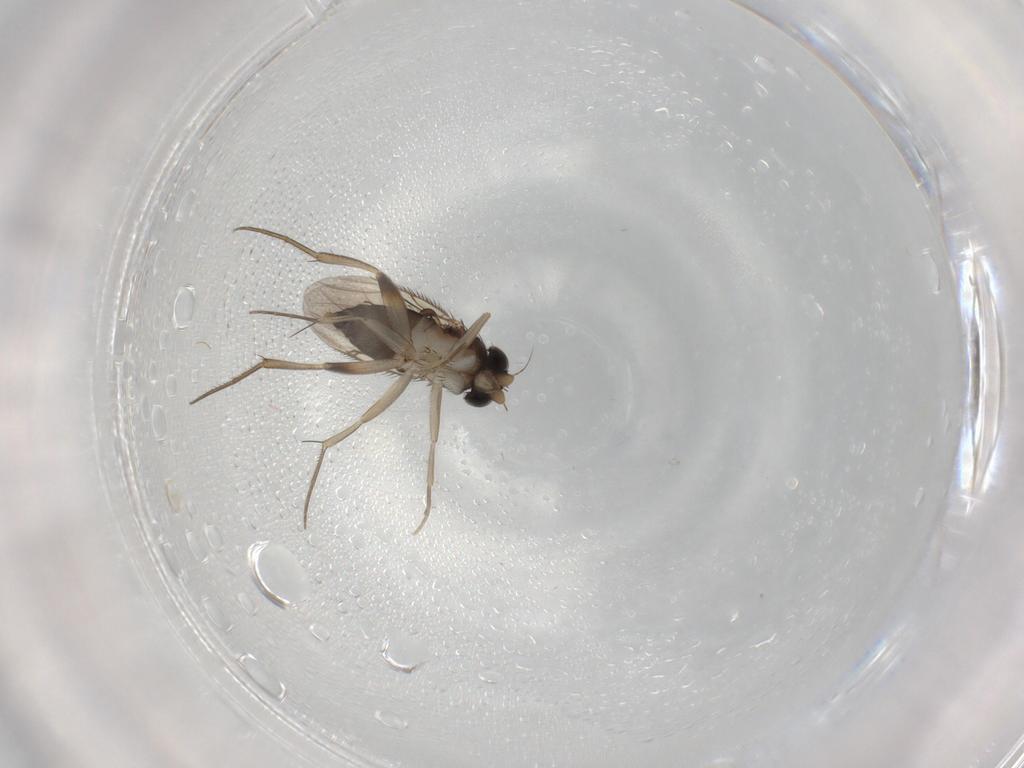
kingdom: Animalia
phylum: Arthropoda
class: Insecta
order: Diptera
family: Phoridae
